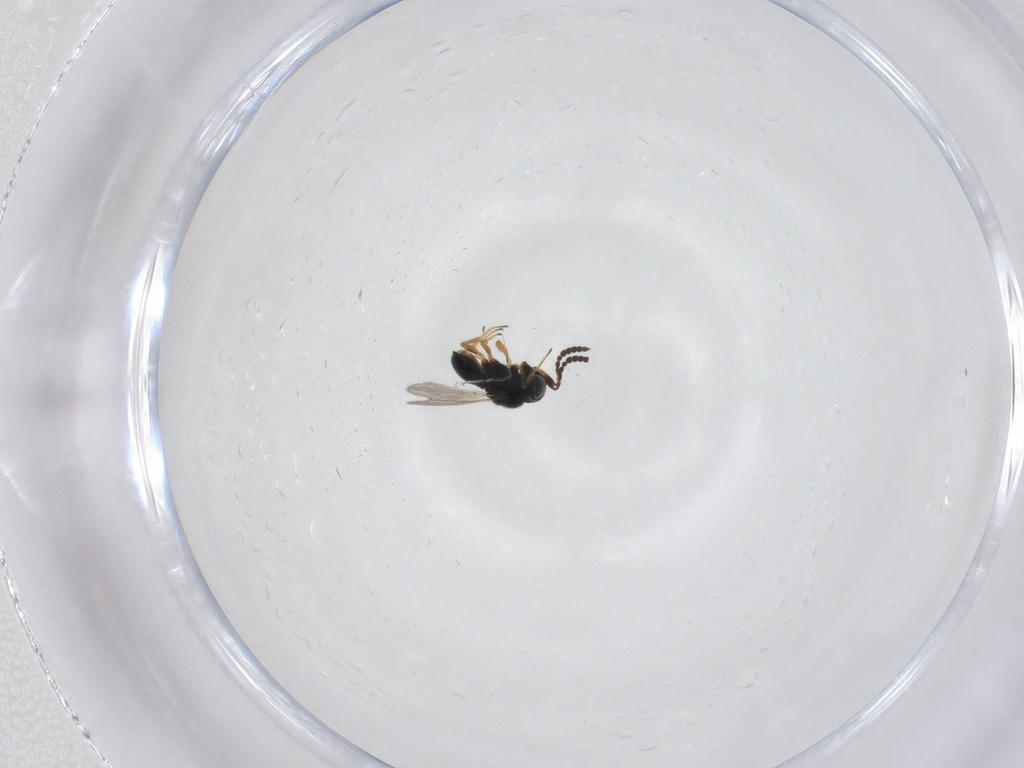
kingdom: Animalia
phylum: Arthropoda
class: Insecta
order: Hymenoptera
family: Scelionidae
